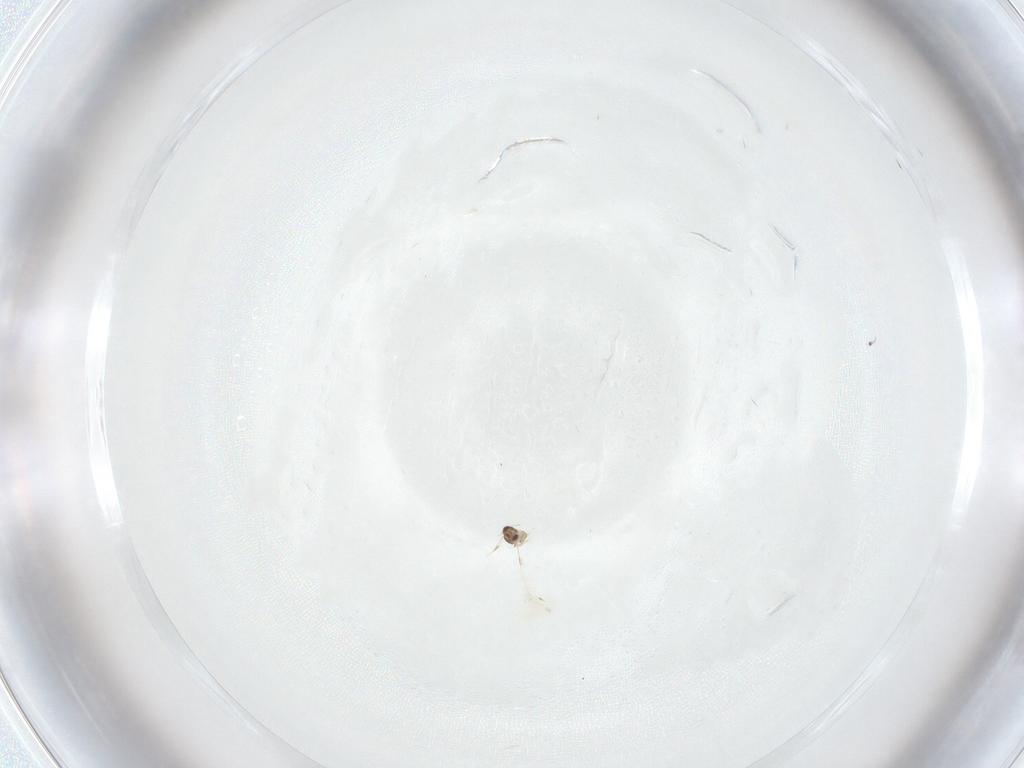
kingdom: Animalia
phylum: Arthropoda
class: Insecta
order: Hymenoptera
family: Mymaridae
